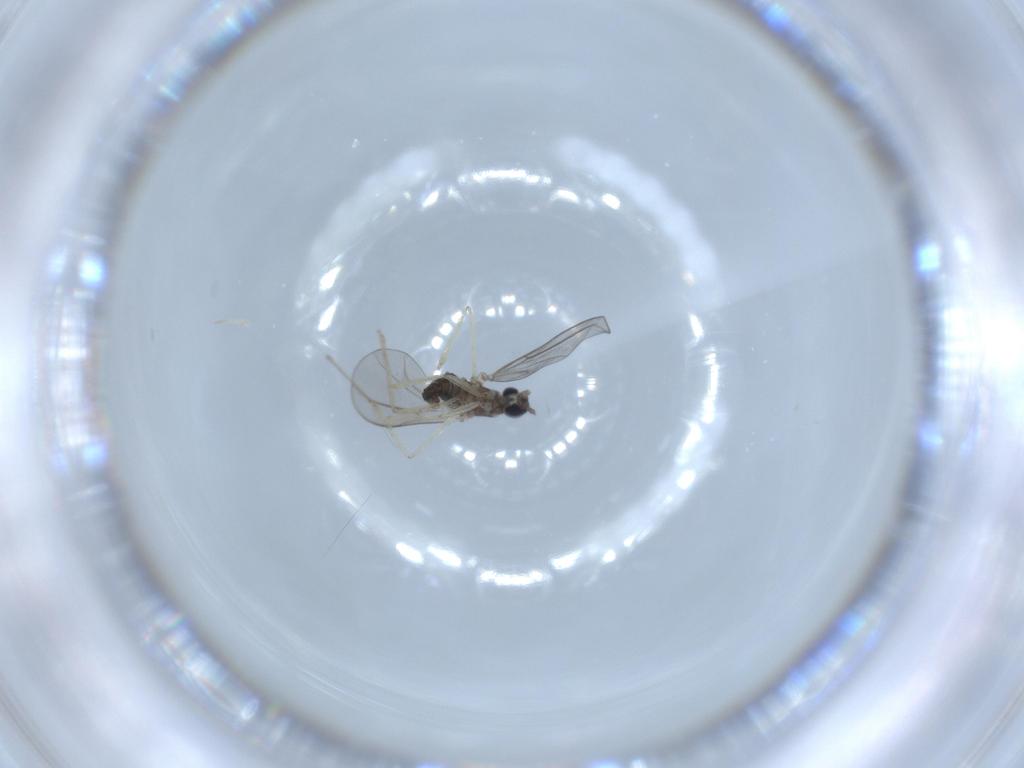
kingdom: Animalia
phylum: Arthropoda
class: Insecta
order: Diptera
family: Cecidomyiidae
